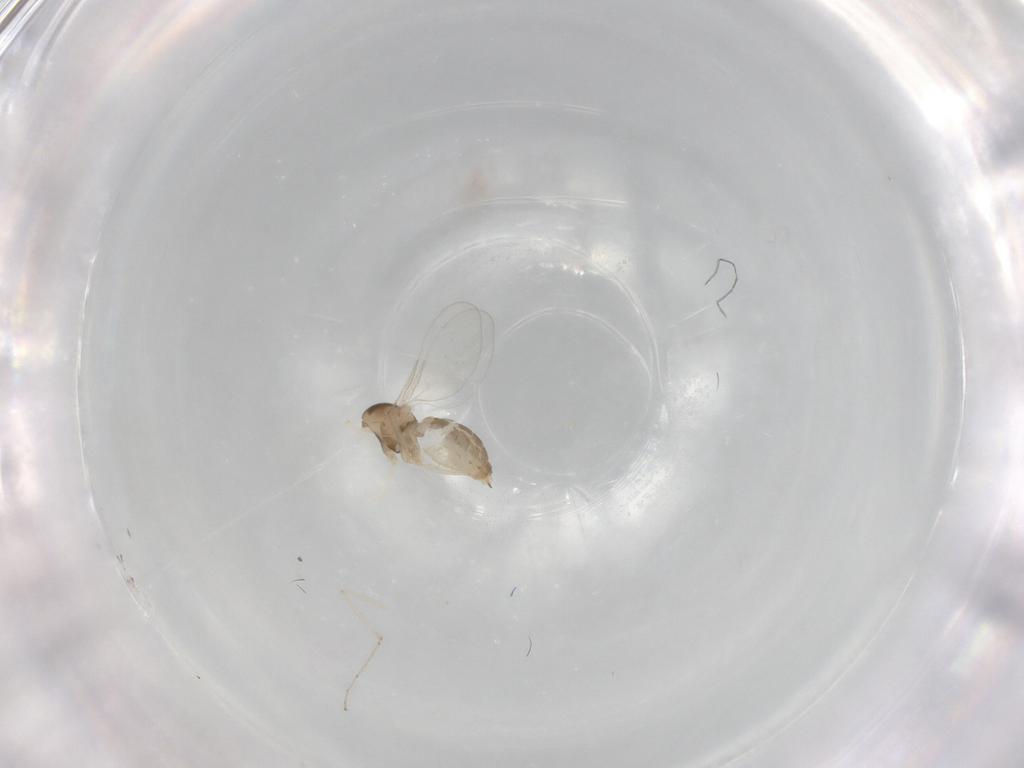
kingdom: Animalia
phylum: Arthropoda
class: Insecta
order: Diptera
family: Cecidomyiidae
